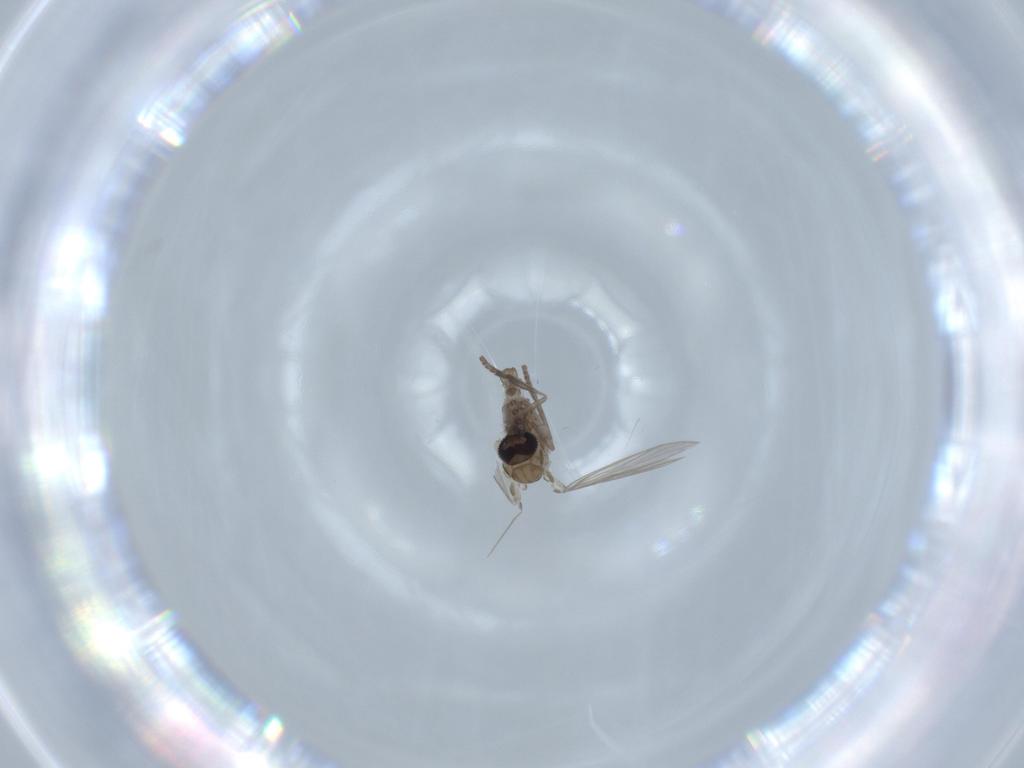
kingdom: Animalia
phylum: Arthropoda
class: Insecta
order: Diptera
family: Psychodidae
